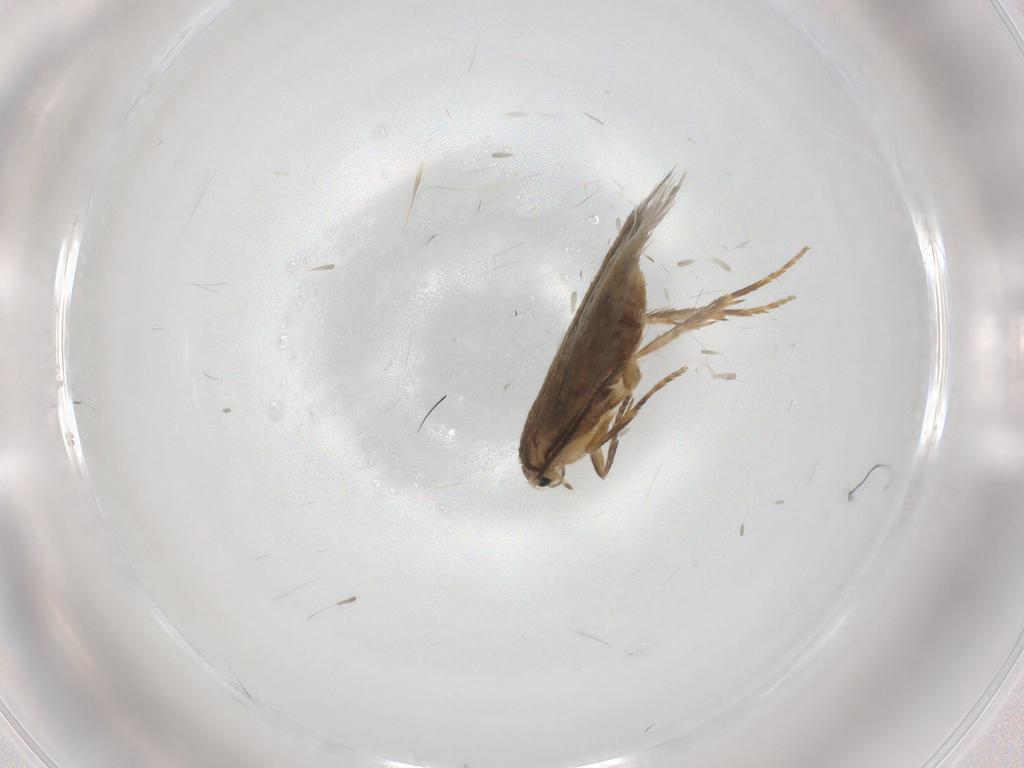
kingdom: Animalia
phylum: Arthropoda
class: Insecta
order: Lepidoptera
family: Nepticulidae
